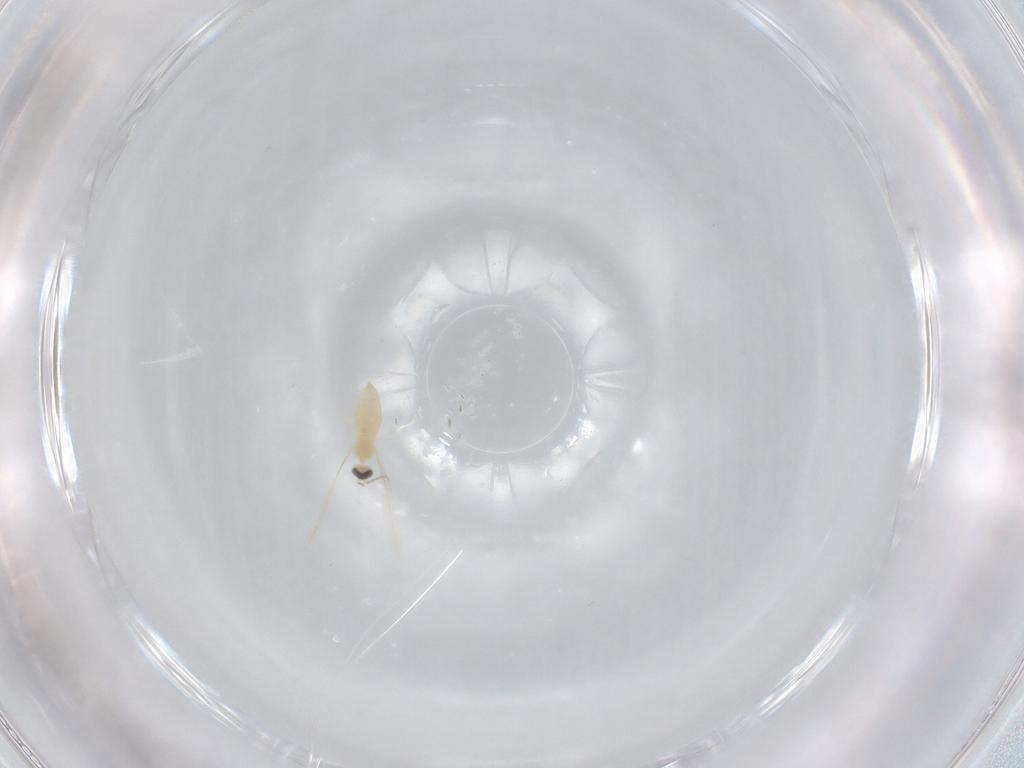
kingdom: Animalia
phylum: Arthropoda
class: Insecta
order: Diptera
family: Cecidomyiidae
